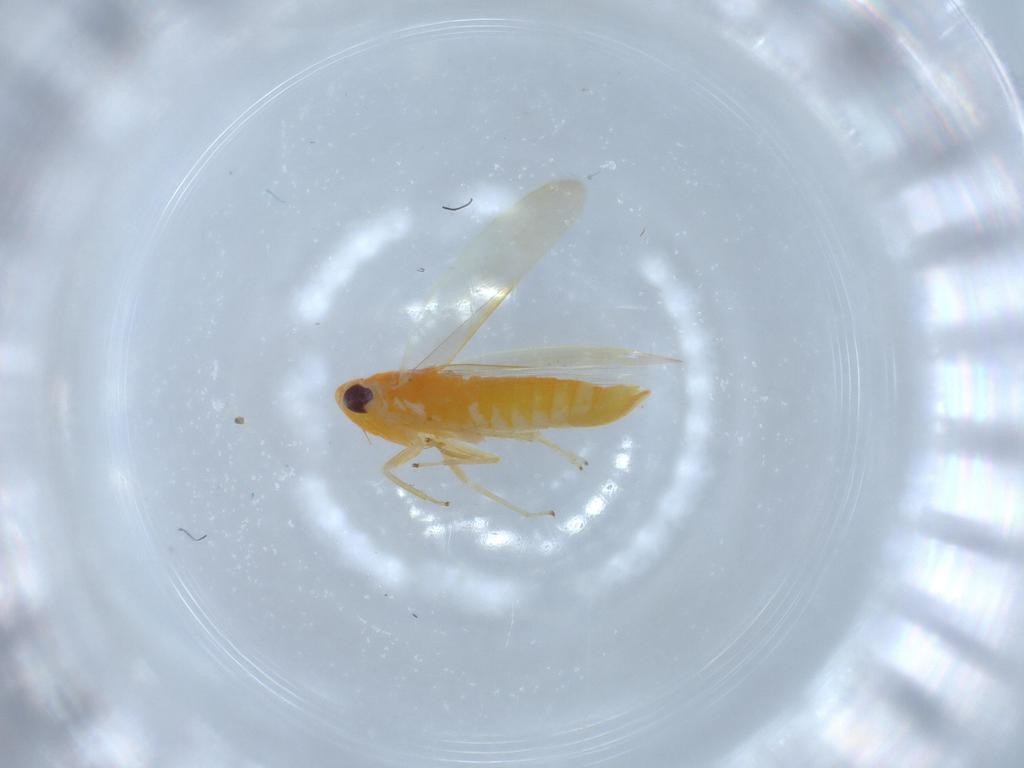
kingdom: Animalia
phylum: Arthropoda
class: Insecta
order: Hemiptera
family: Cicadellidae
